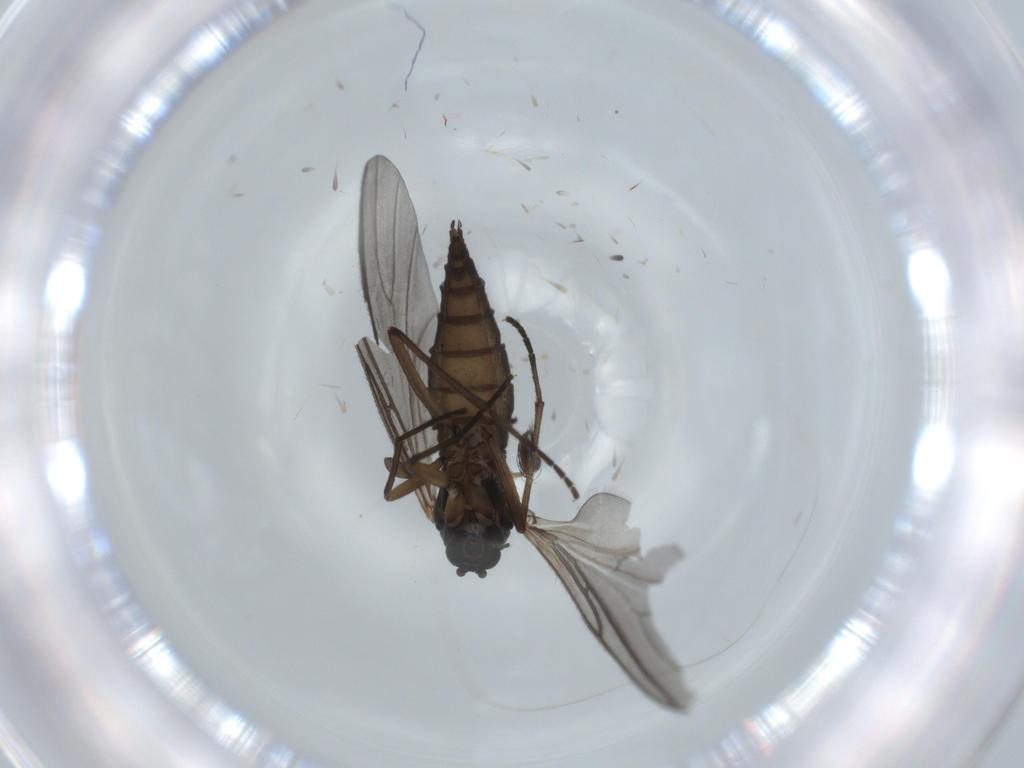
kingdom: Animalia
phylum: Arthropoda
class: Insecta
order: Diptera
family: Sciaridae
